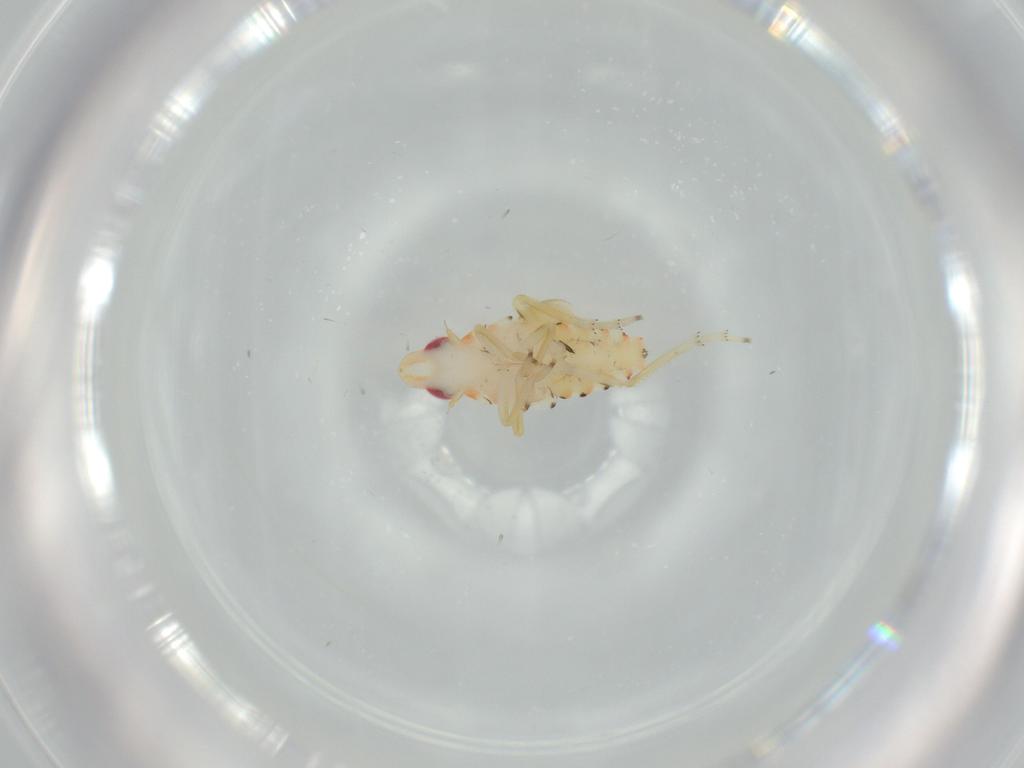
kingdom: Animalia
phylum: Arthropoda
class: Insecta
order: Hemiptera
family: Tropiduchidae
